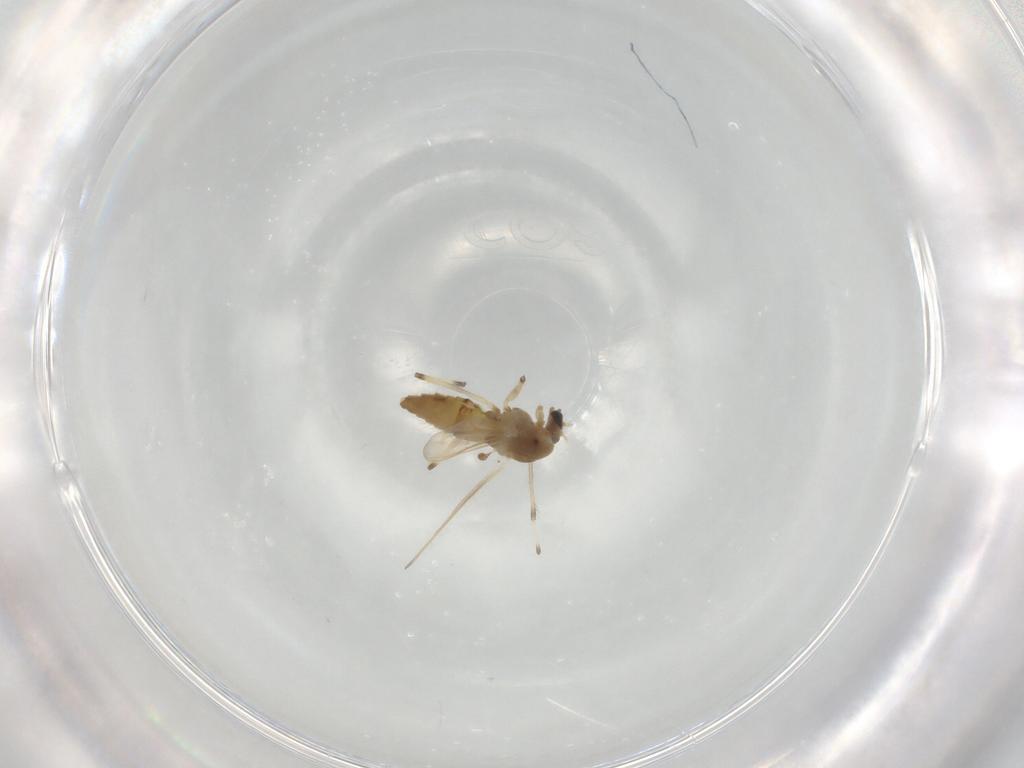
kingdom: Animalia
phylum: Arthropoda
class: Insecta
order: Diptera
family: Chironomidae
